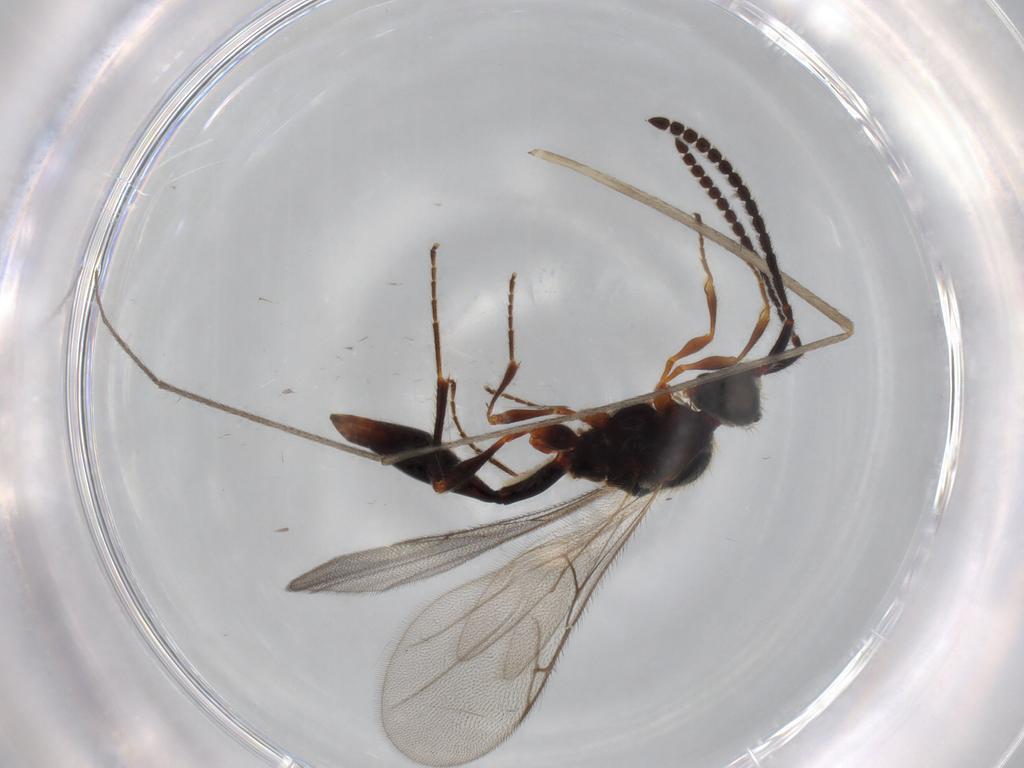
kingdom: Animalia
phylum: Arthropoda
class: Insecta
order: Hymenoptera
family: Diapriidae
